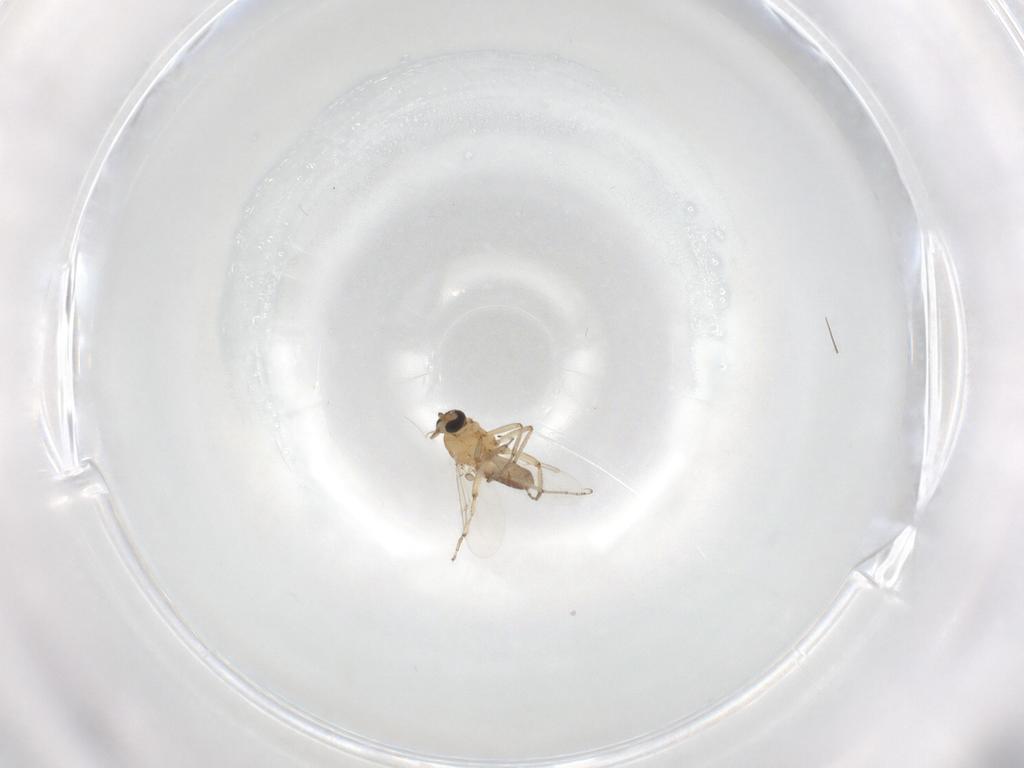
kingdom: Animalia
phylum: Arthropoda
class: Insecta
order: Diptera
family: Ceratopogonidae
